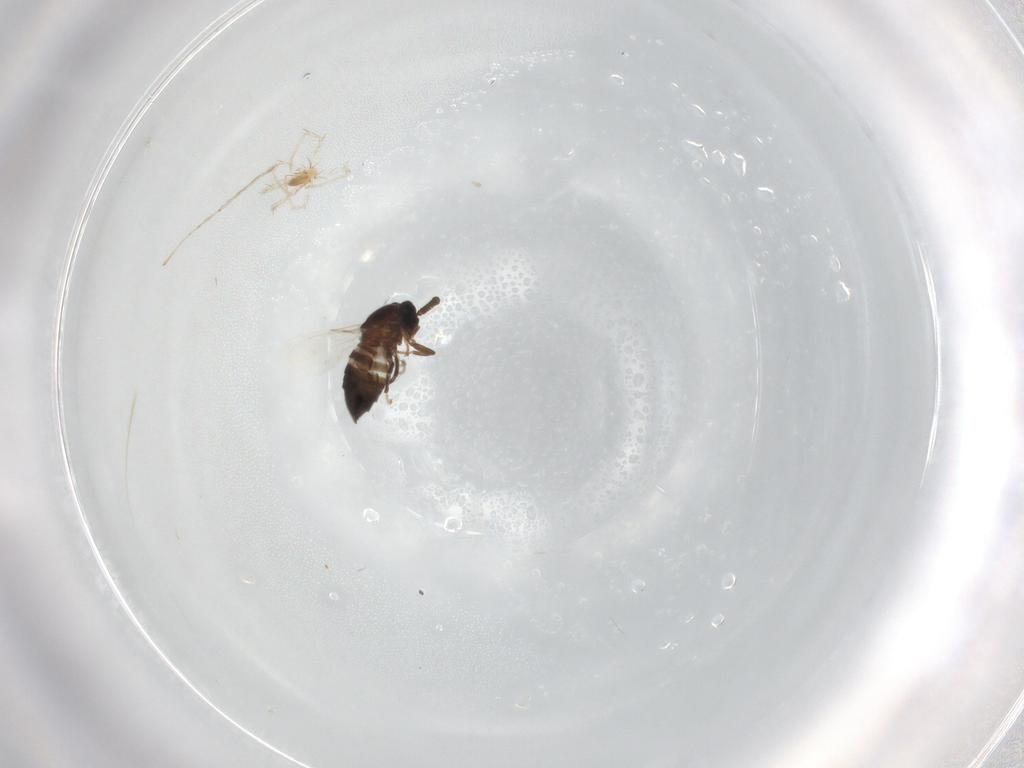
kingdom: Animalia
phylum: Arthropoda
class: Insecta
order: Diptera
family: Scatopsidae
